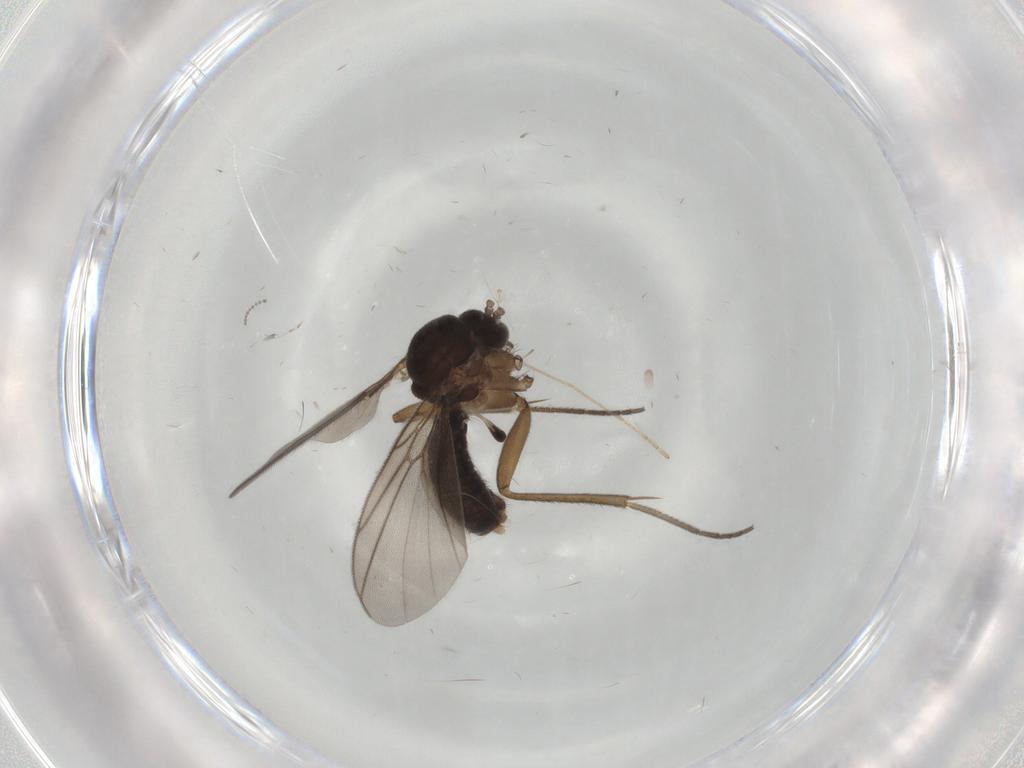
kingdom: Animalia
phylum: Arthropoda
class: Insecta
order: Diptera
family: Mycetophilidae
